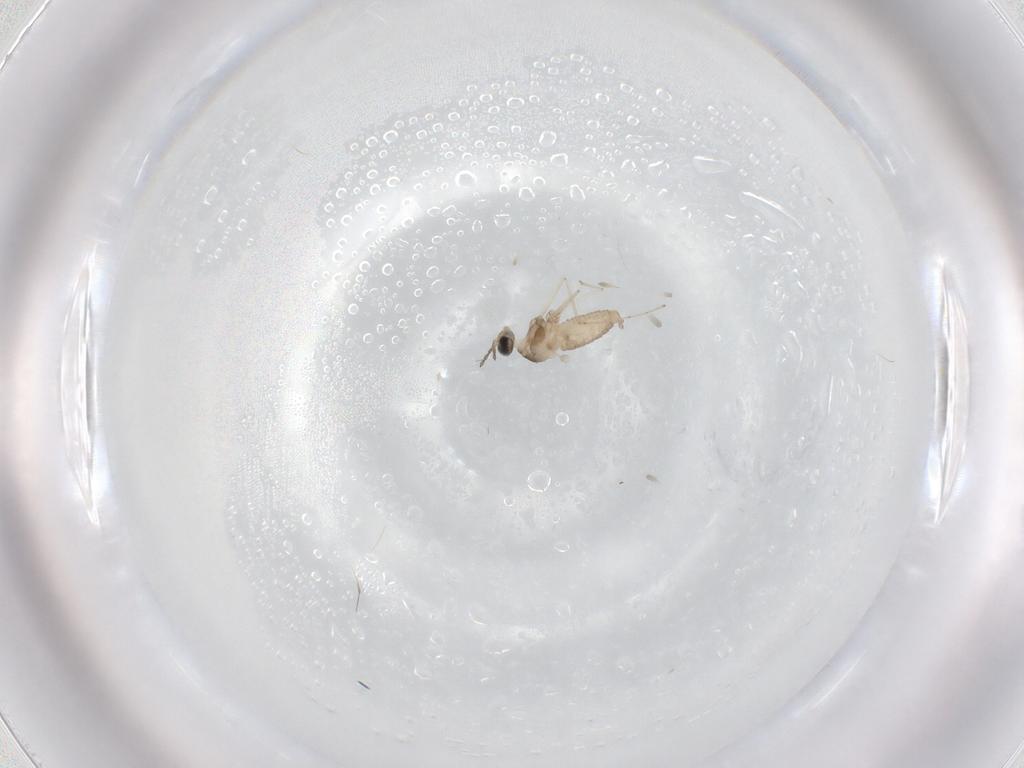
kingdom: Animalia
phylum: Arthropoda
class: Insecta
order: Diptera
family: Cecidomyiidae
